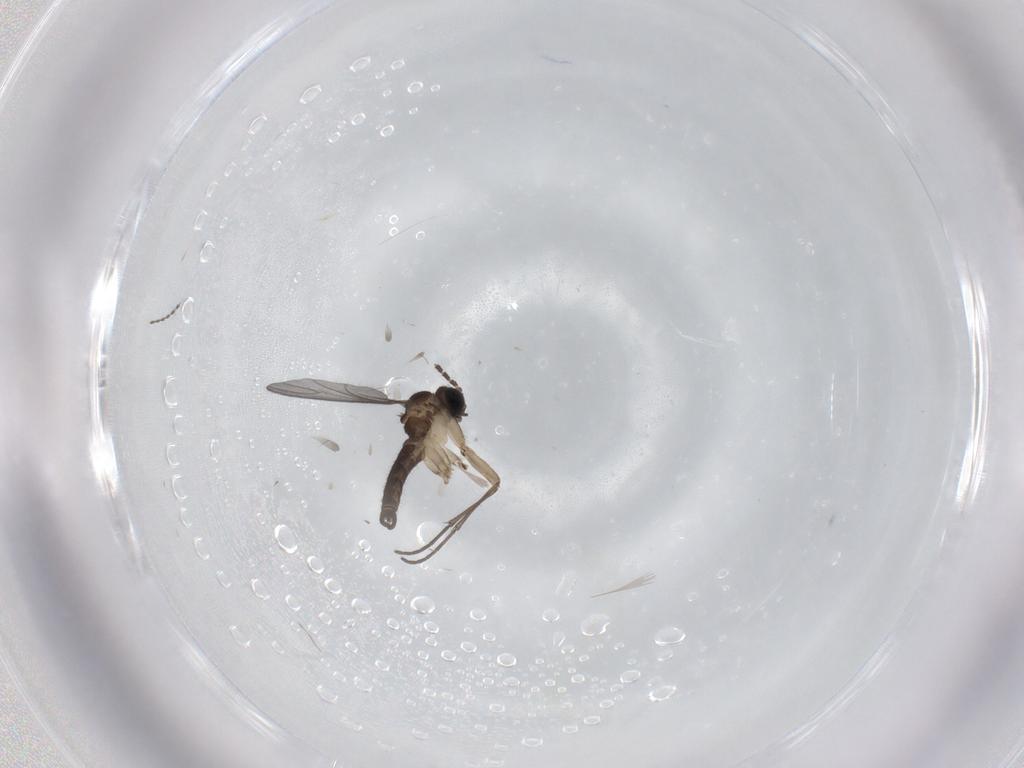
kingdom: Animalia
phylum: Arthropoda
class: Insecta
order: Diptera
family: Sciaridae
